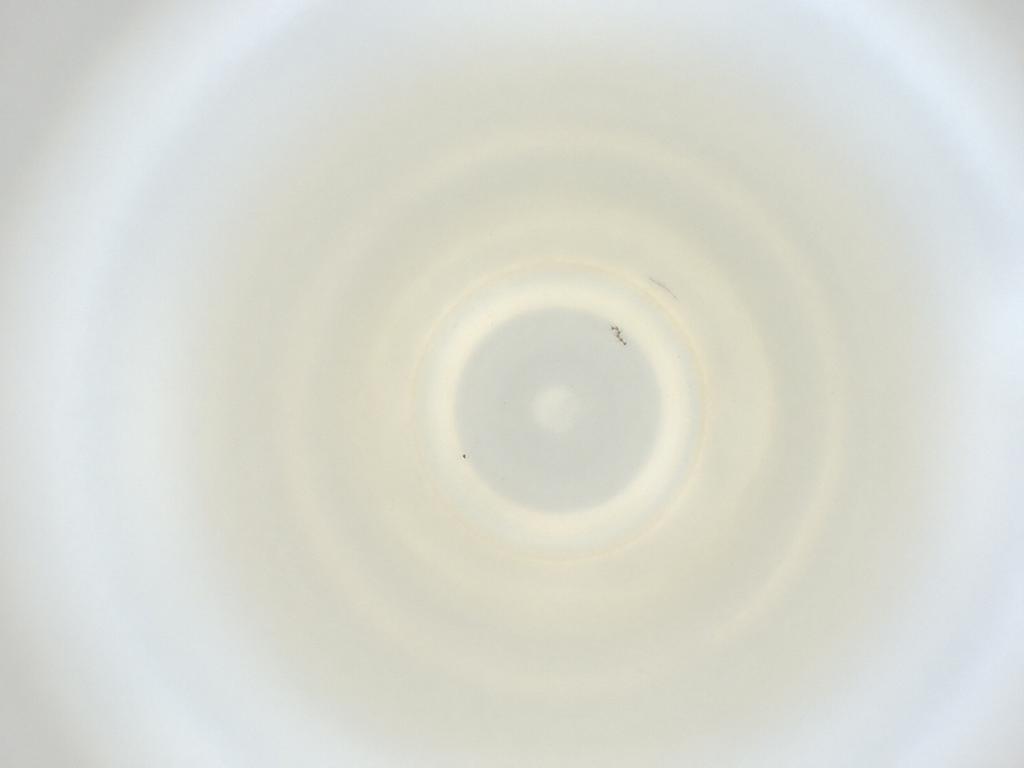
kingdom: Animalia
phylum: Arthropoda
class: Insecta
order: Diptera
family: Cecidomyiidae
